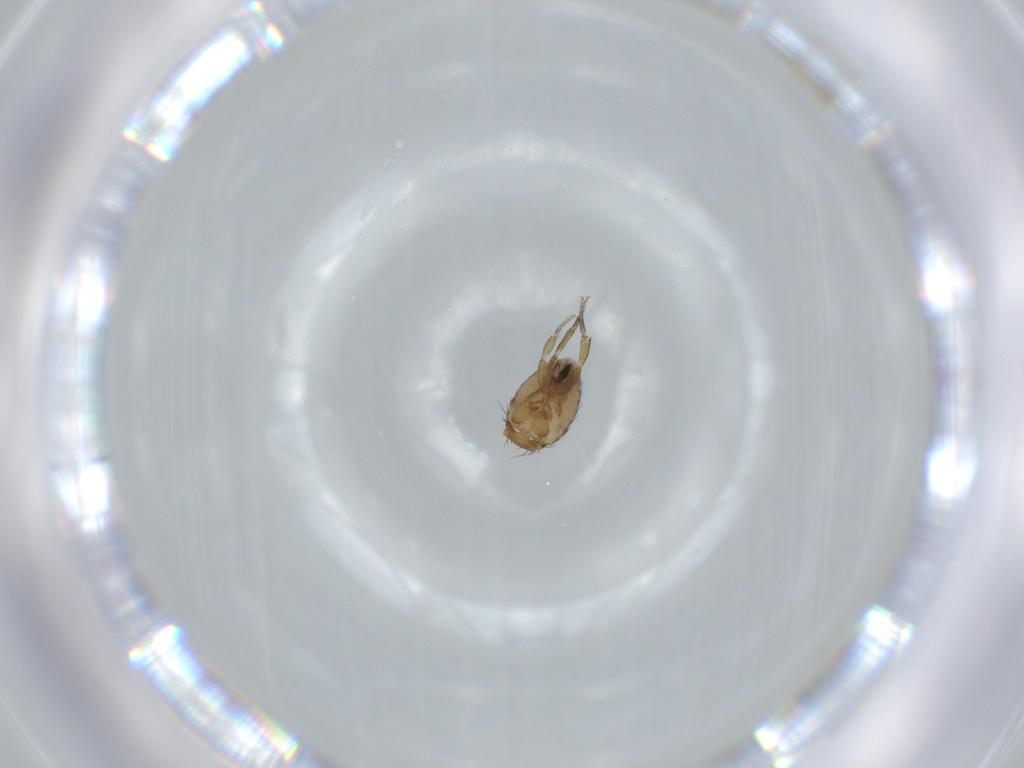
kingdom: Animalia
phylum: Arthropoda
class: Insecta
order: Diptera
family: Phoridae
